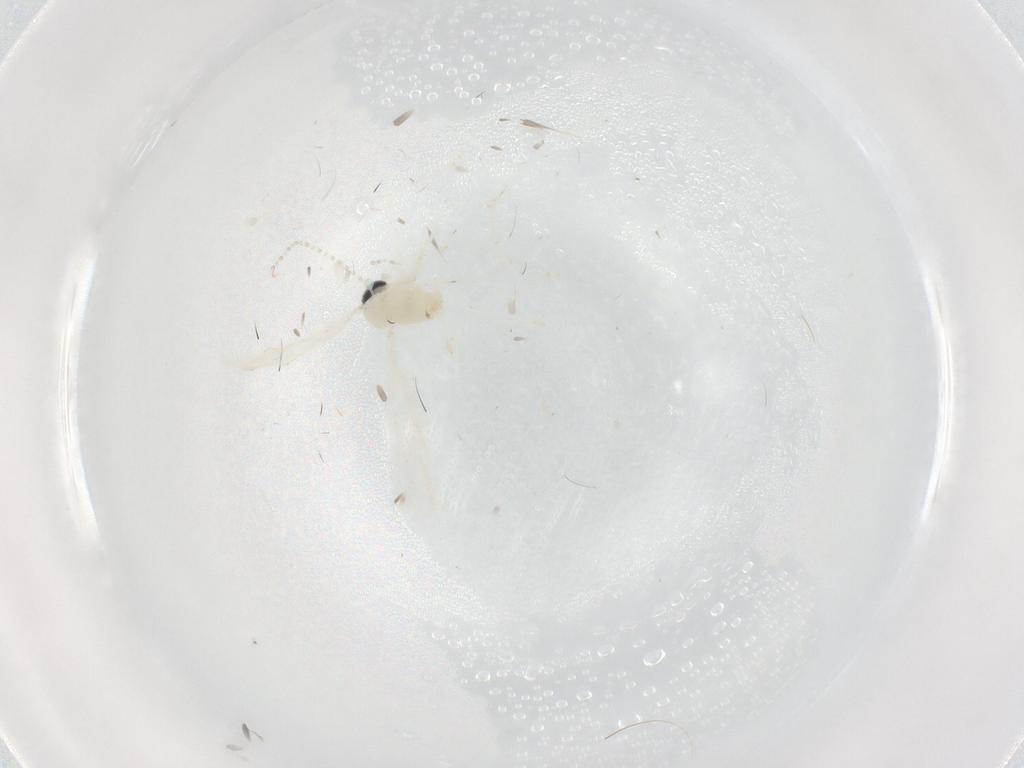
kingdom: Animalia
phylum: Arthropoda
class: Insecta
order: Diptera
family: Cecidomyiidae
